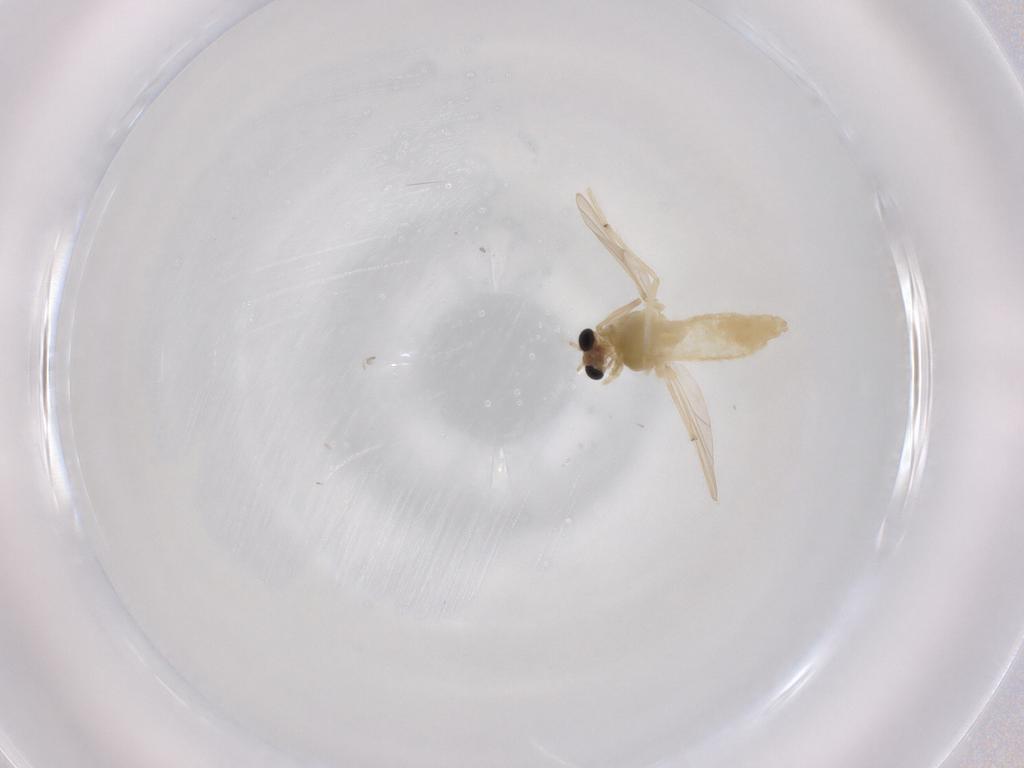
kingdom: Animalia
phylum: Arthropoda
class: Insecta
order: Diptera
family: Chironomidae
